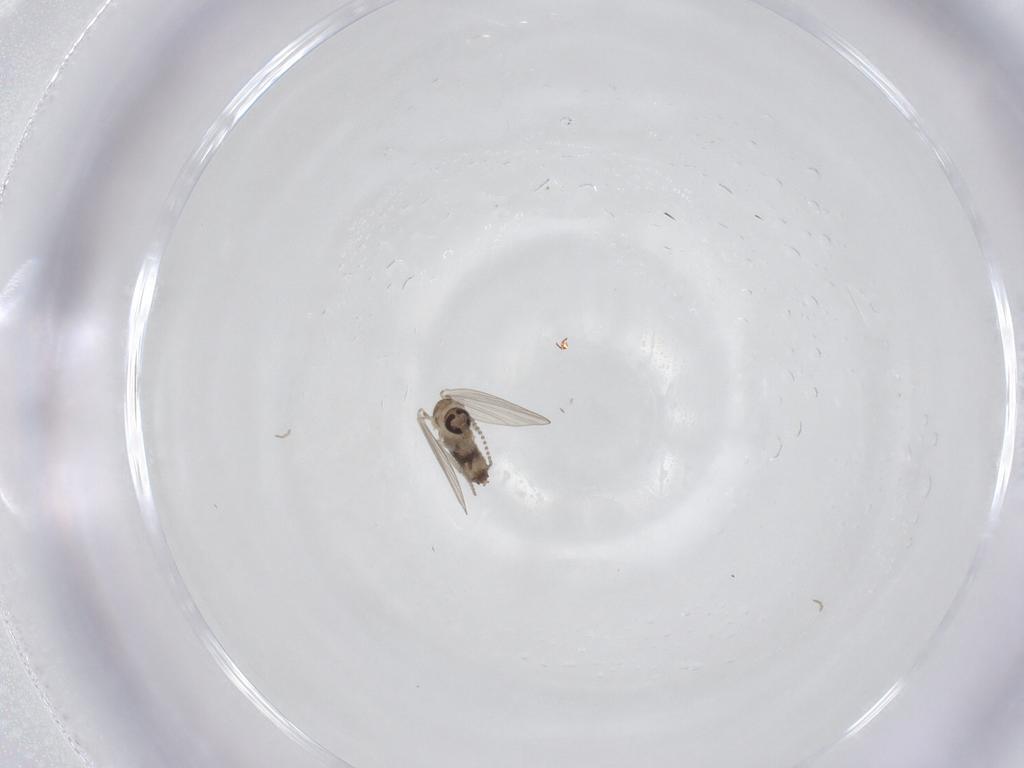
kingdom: Animalia
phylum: Arthropoda
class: Insecta
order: Diptera
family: Psychodidae
